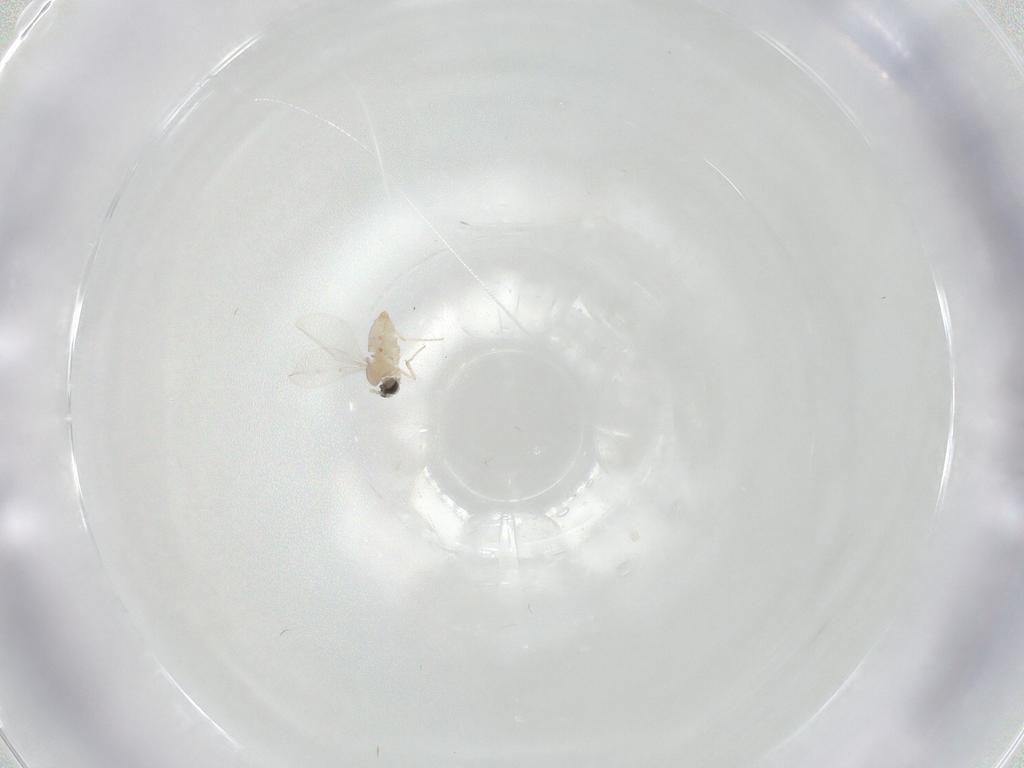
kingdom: Animalia
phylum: Arthropoda
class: Insecta
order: Diptera
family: Cecidomyiidae
